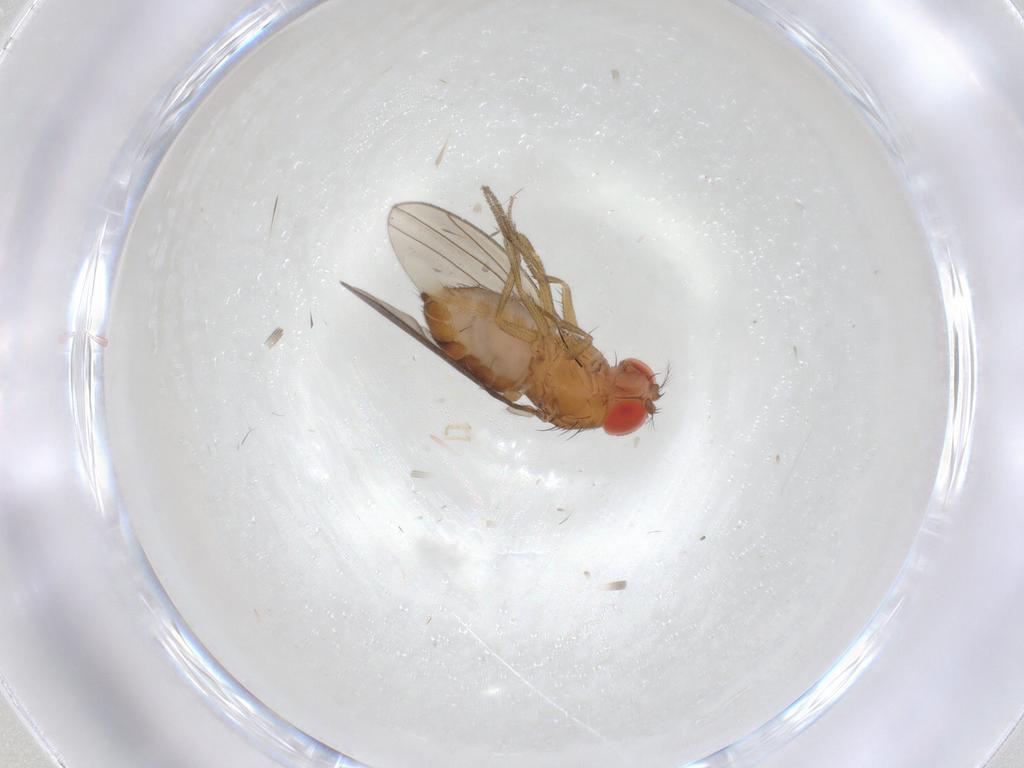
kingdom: Animalia
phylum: Arthropoda
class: Insecta
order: Diptera
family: Drosophilidae
